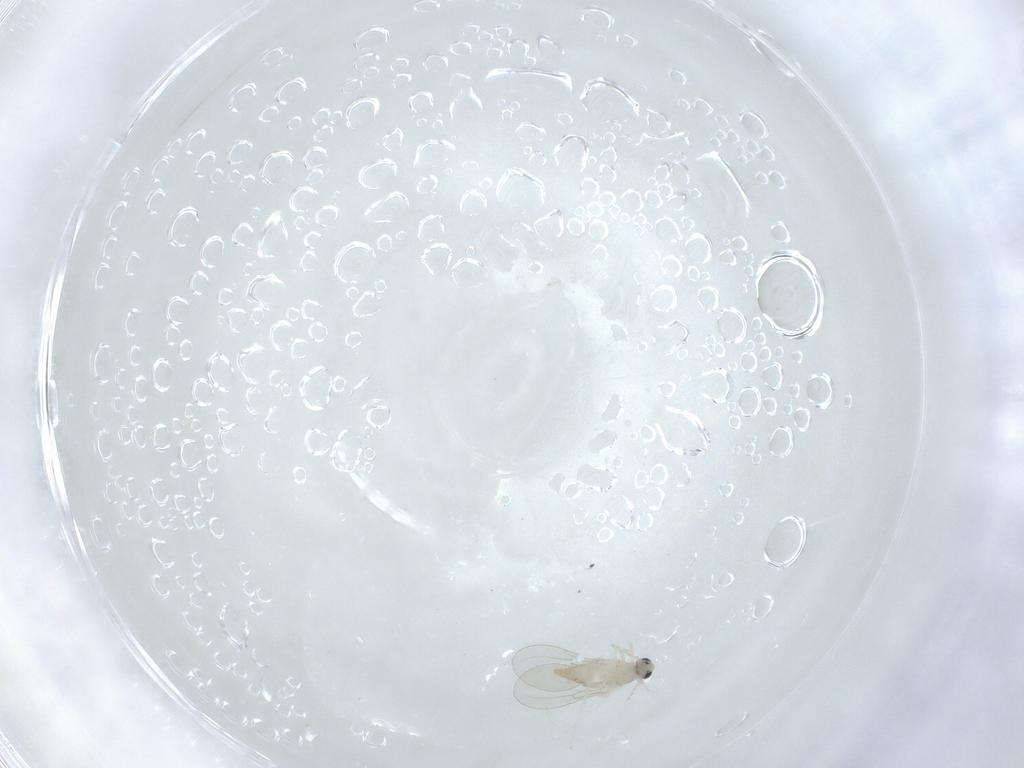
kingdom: Animalia
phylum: Arthropoda
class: Insecta
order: Diptera
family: Cecidomyiidae
